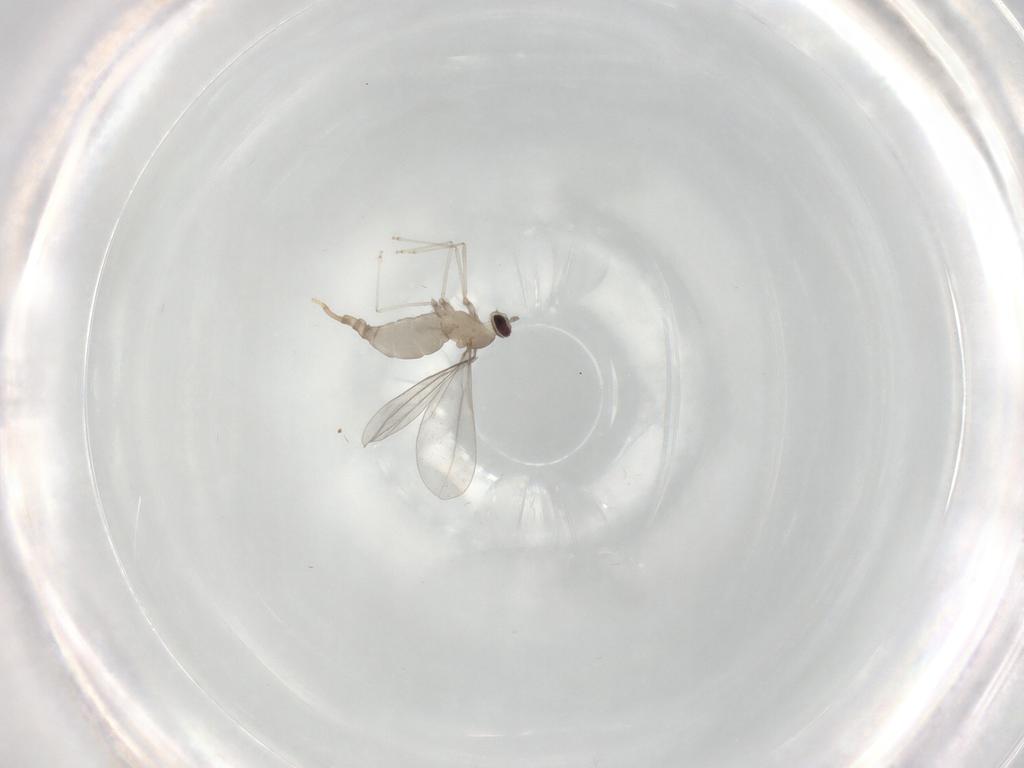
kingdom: Animalia
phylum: Arthropoda
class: Insecta
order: Diptera
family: Cecidomyiidae
